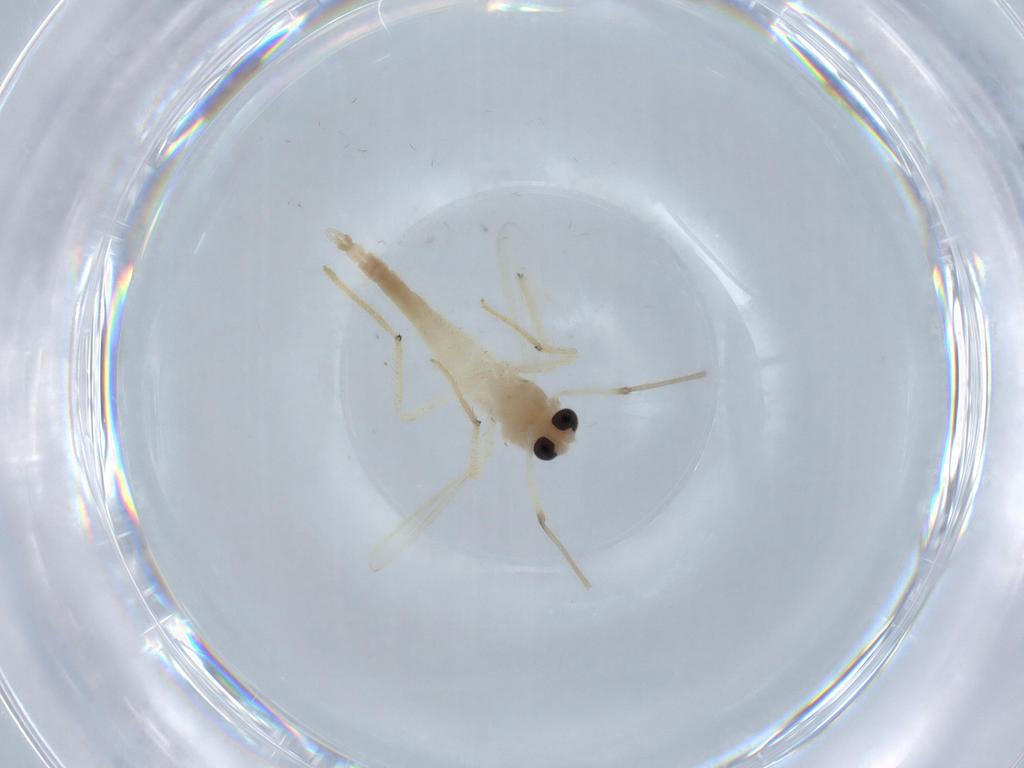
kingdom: Animalia
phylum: Arthropoda
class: Insecta
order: Diptera
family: Chironomidae
